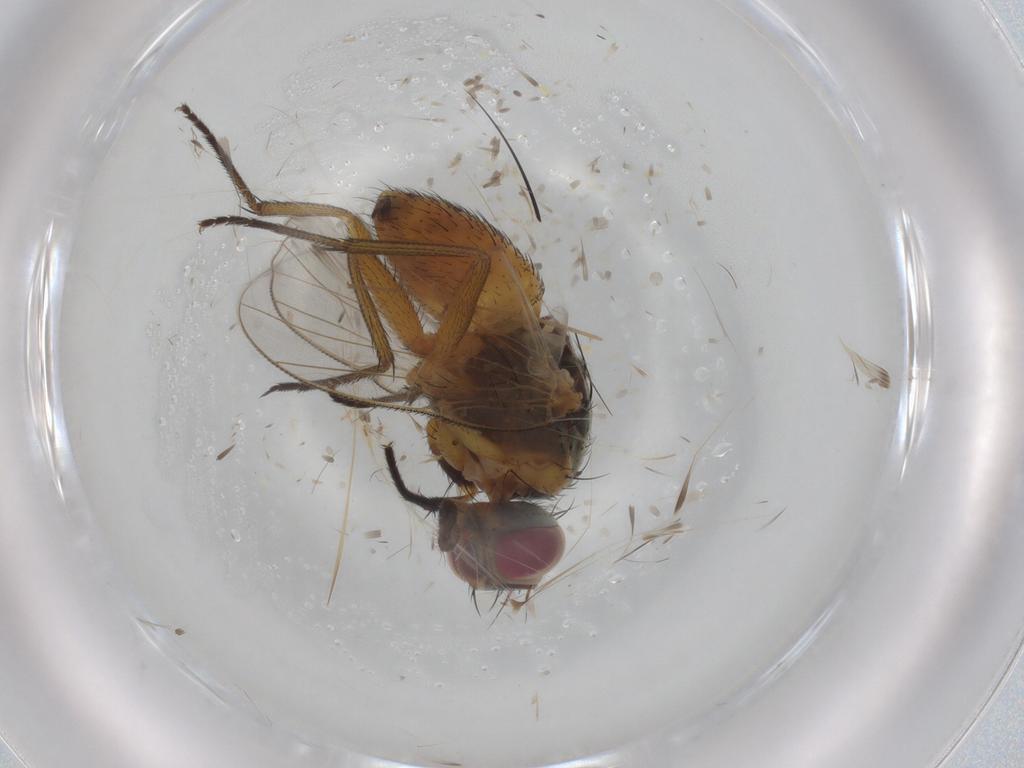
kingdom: Animalia
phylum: Arthropoda
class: Insecta
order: Diptera
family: Muscidae
